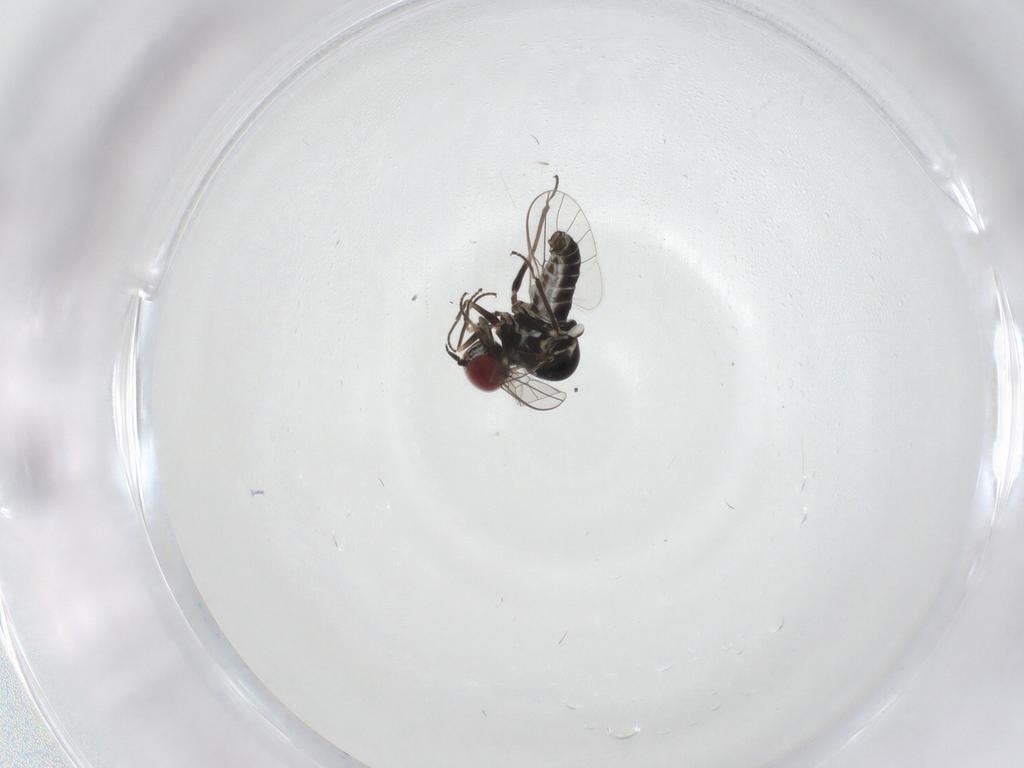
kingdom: Animalia
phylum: Arthropoda
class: Insecta
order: Diptera
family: Bombyliidae
